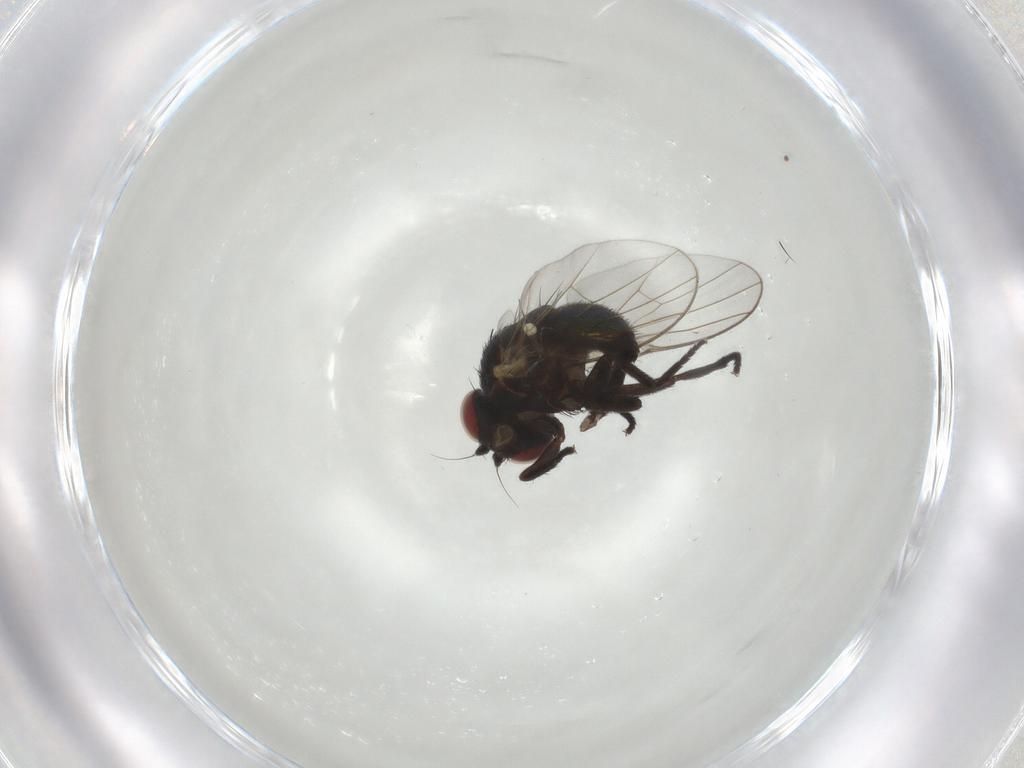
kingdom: Animalia
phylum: Arthropoda
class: Insecta
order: Diptera
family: Agromyzidae
